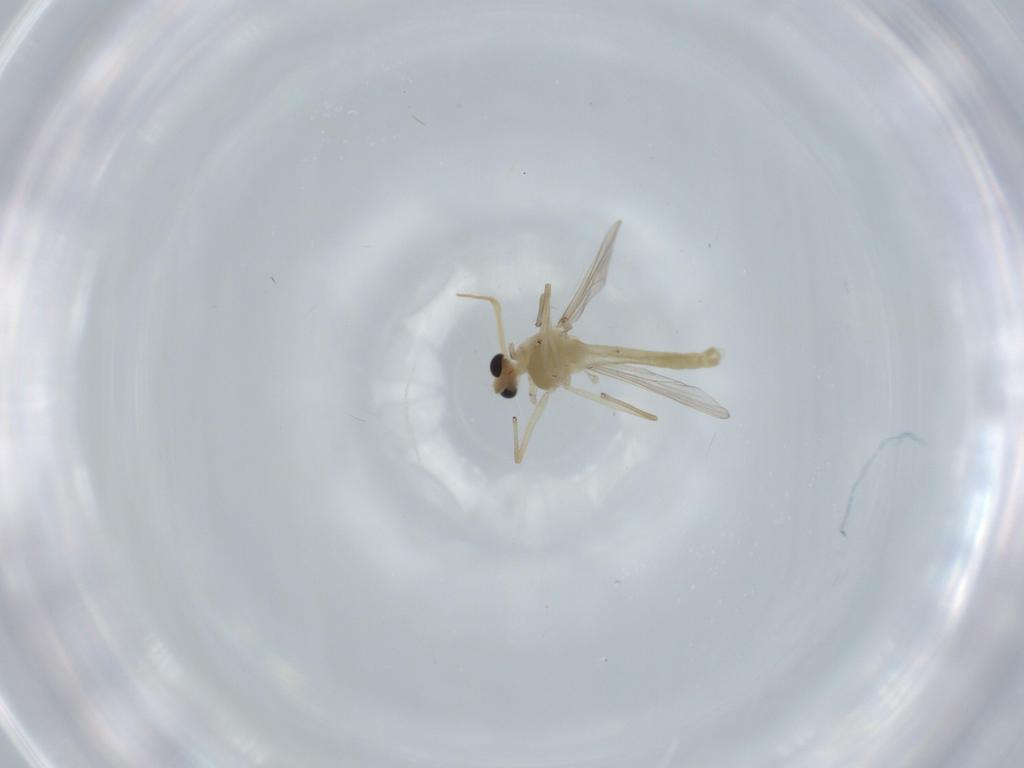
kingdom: Animalia
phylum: Arthropoda
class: Insecta
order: Diptera
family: Chironomidae
